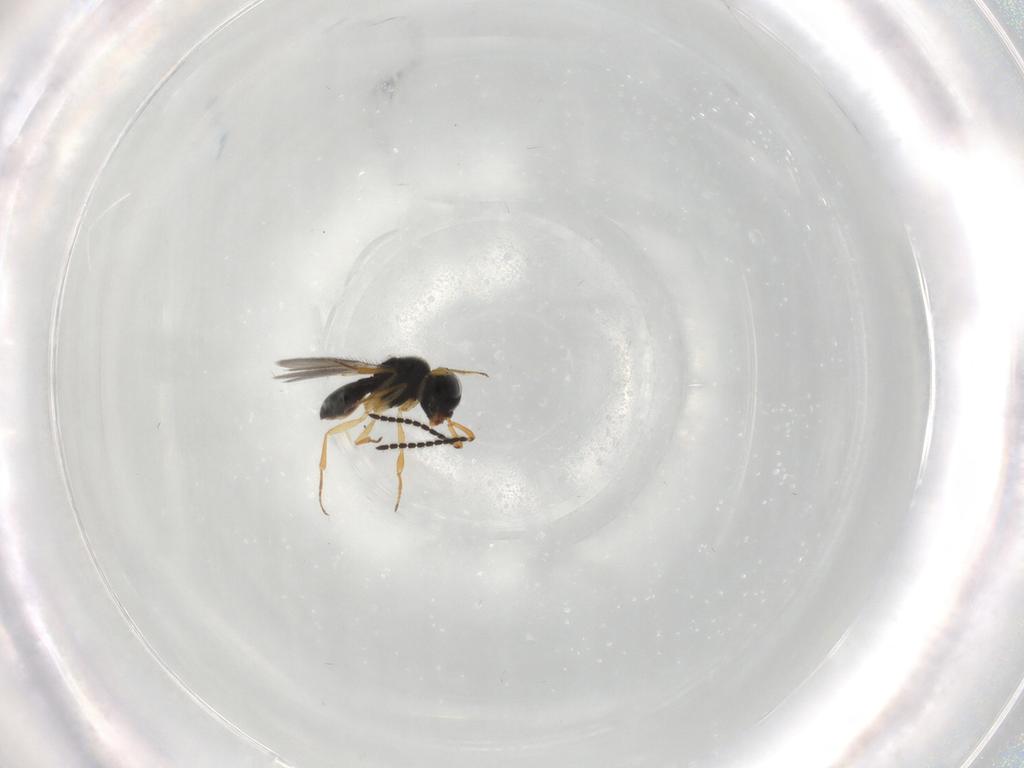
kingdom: Animalia
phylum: Arthropoda
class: Insecta
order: Hymenoptera
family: Scelionidae
